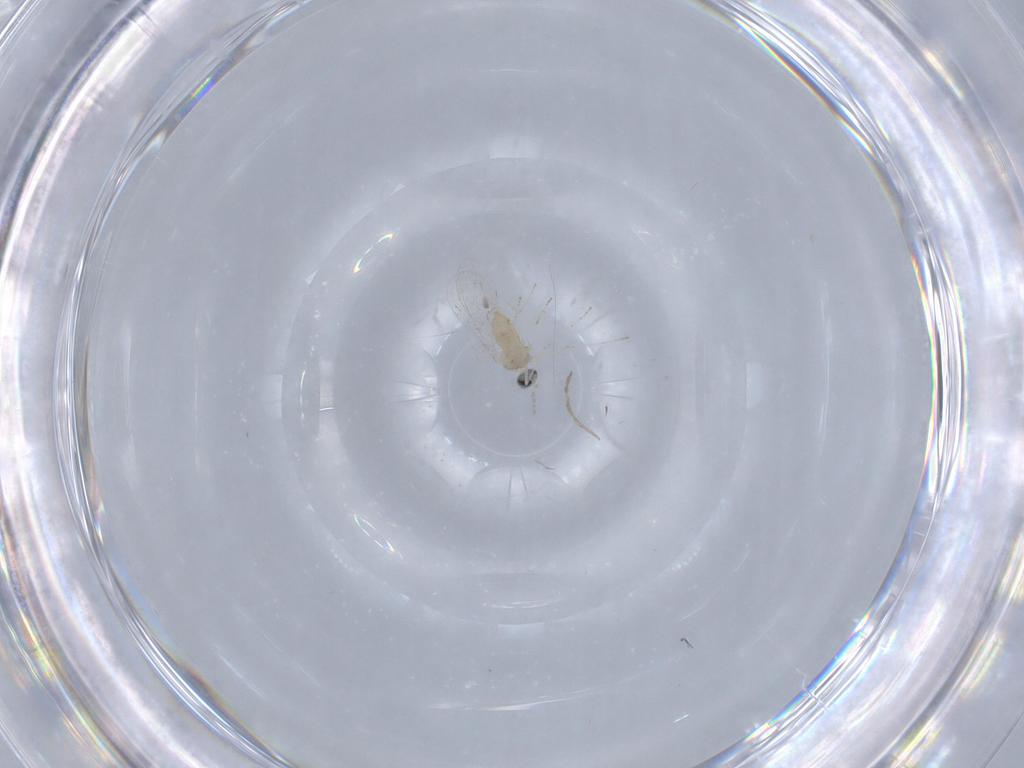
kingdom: Animalia
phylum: Arthropoda
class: Insecta
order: Diptera
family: Cecidomyiidae
